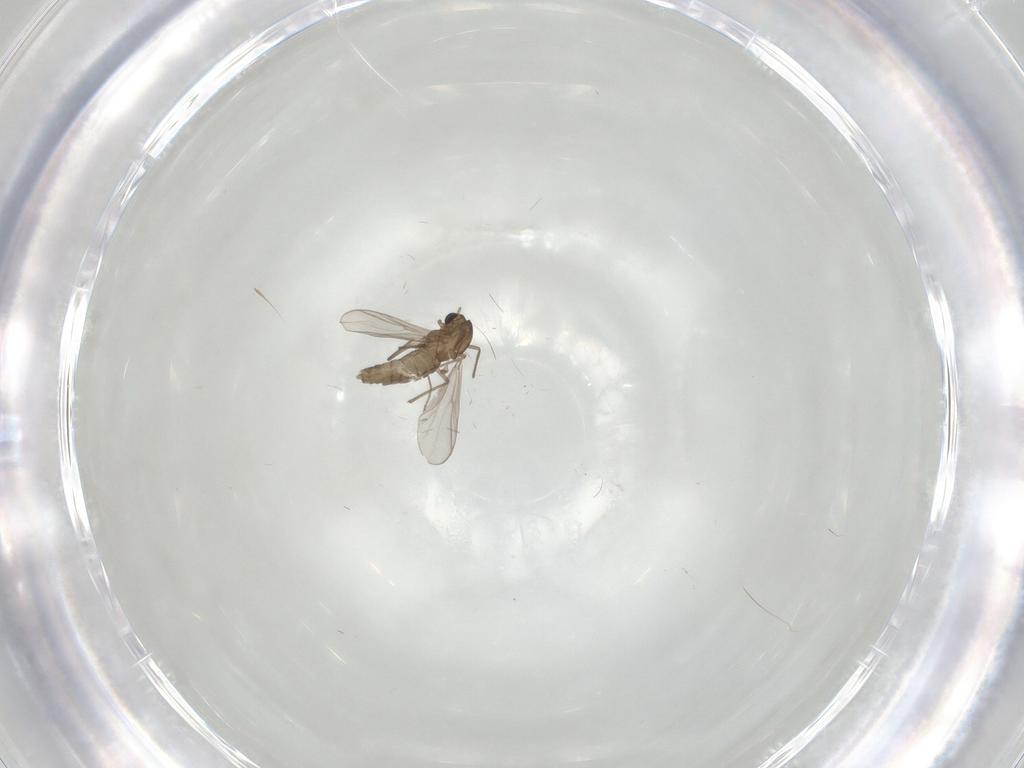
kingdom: Animalia
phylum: Arthropoda
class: Insecta
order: Diptera
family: Chironomidae
